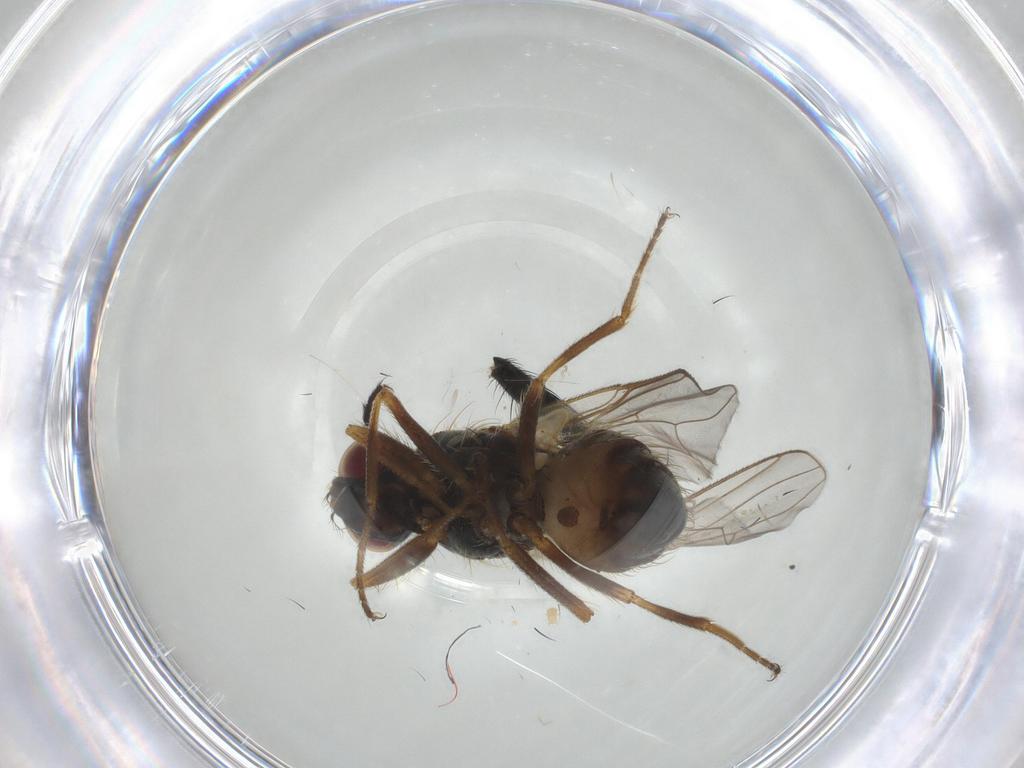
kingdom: Animalia
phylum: Arthropoda
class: Insecta
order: Diptera
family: Muscidae
